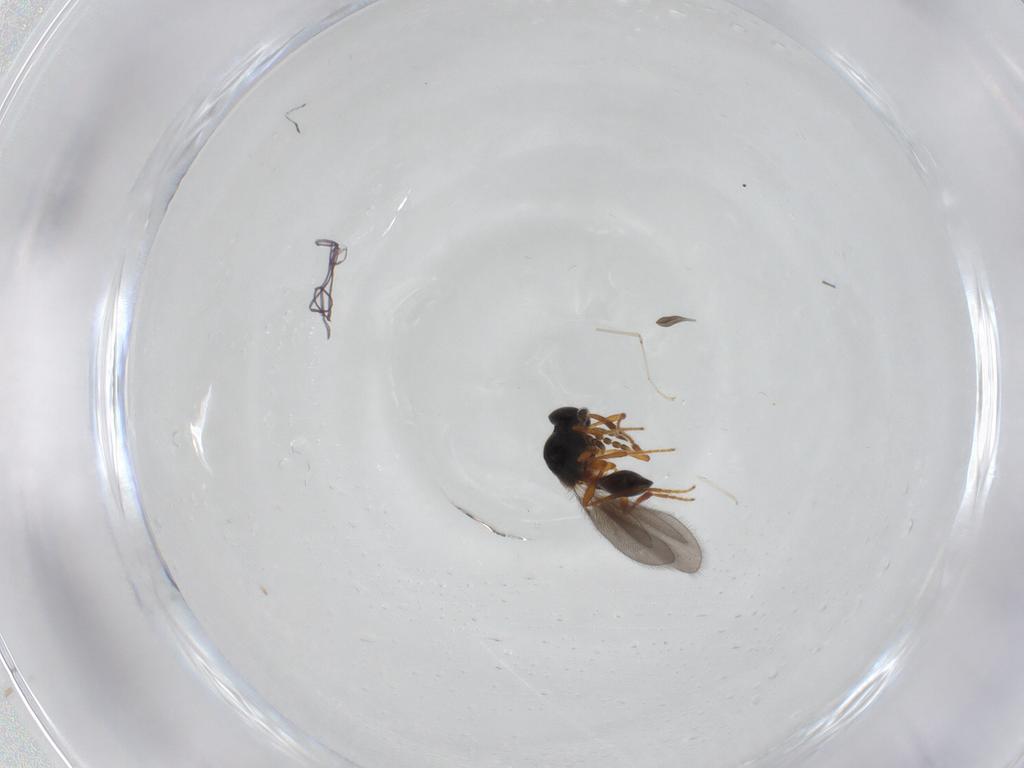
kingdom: Animalia
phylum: Arthropoda
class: Insecta
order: Hymenoptera
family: Platygastridae
